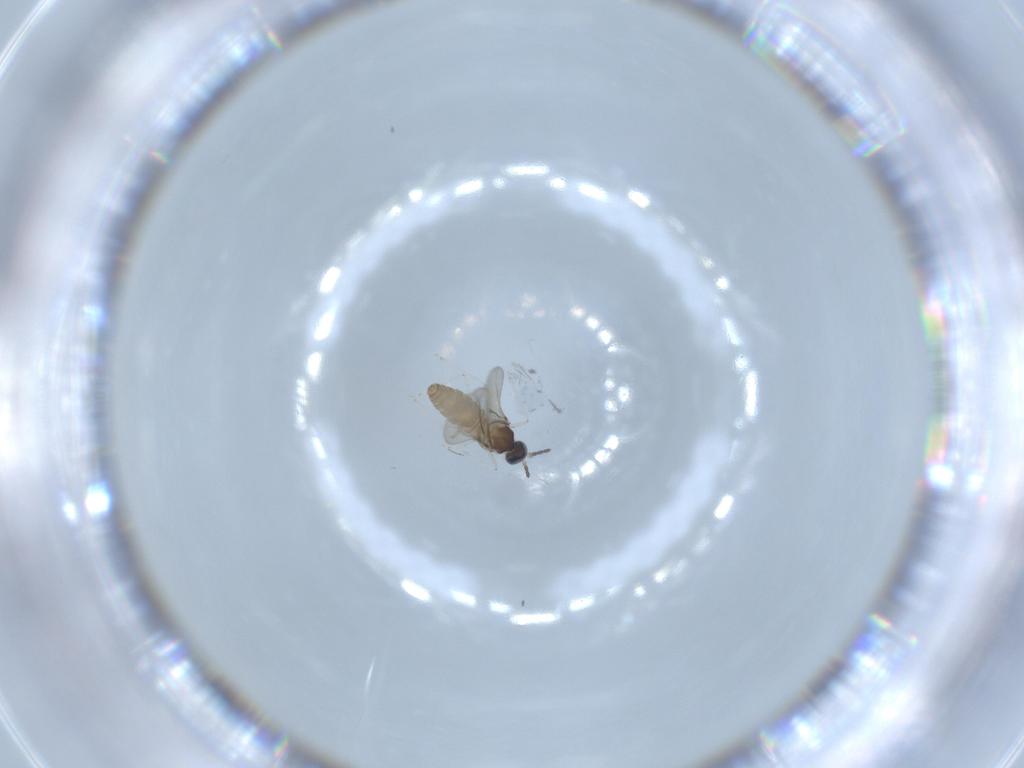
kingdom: Animalia
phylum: Arthropoda
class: Insecta
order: Diptera
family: Cecidomyiidae
